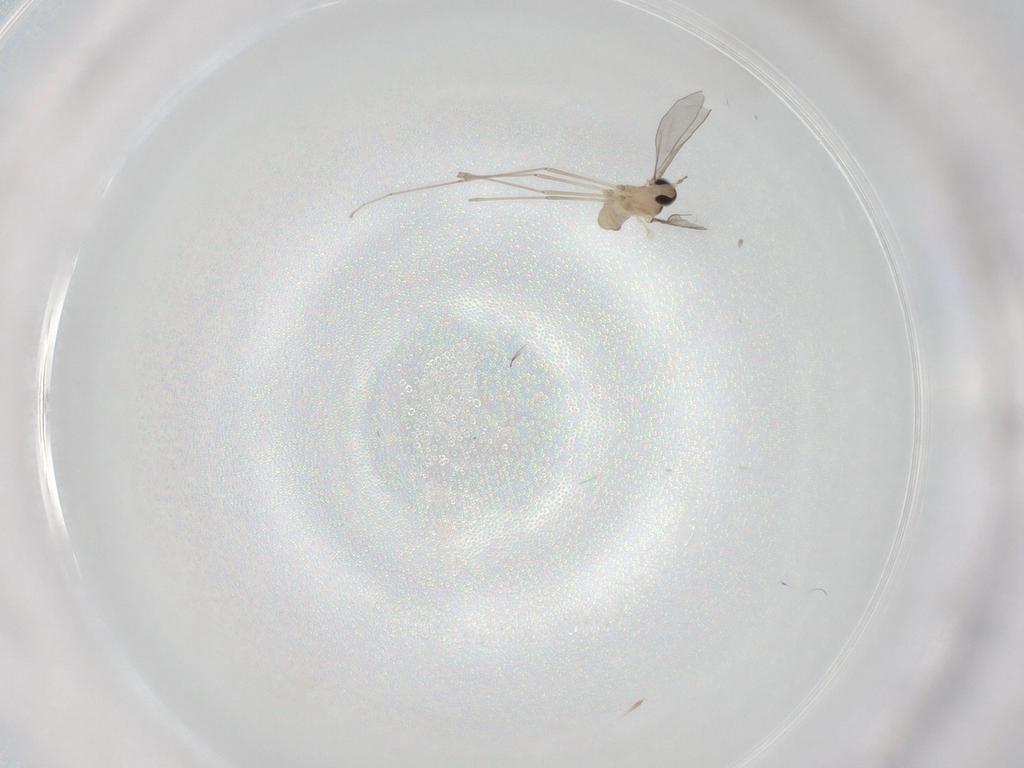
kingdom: Animalia
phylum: Arthropoda
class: Insecta
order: Diptera
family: Cecidomyiidae
